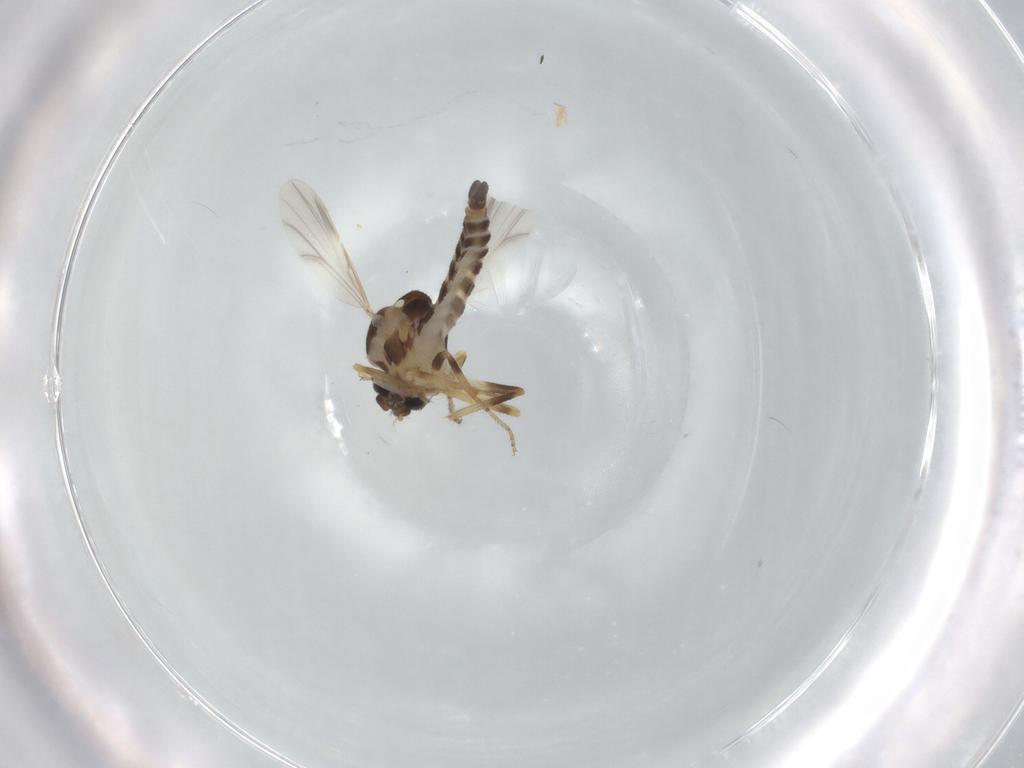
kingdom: Animalia
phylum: Arthropoda
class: Insecta
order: Diptera
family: Ceratopogonidae
